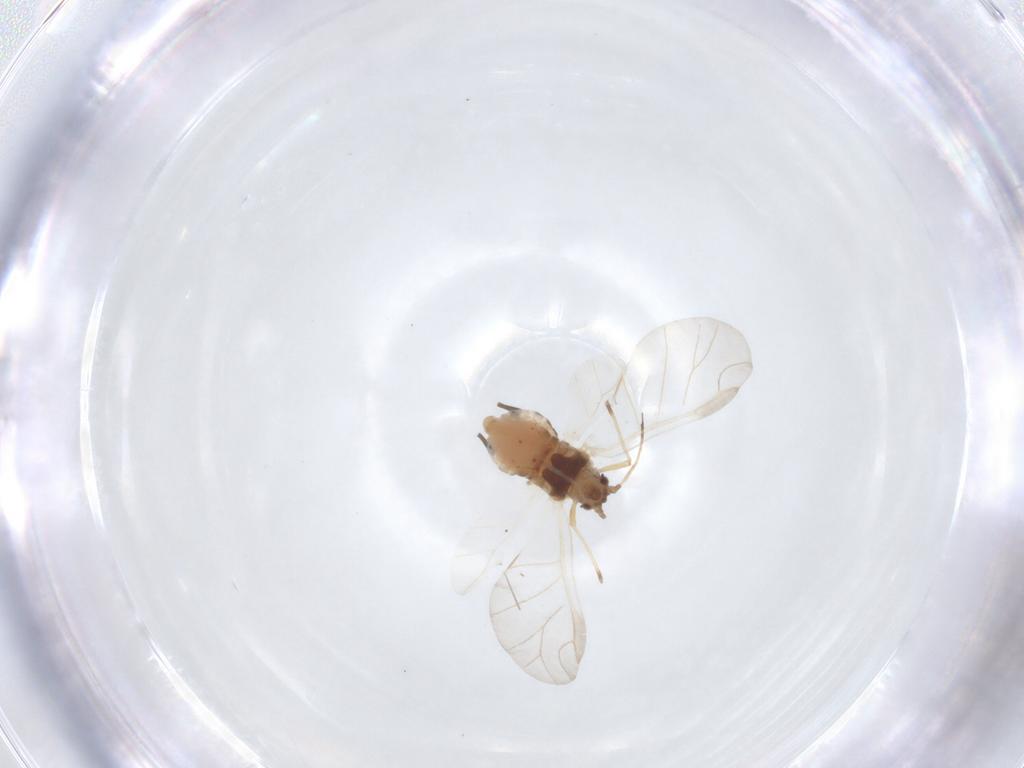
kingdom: Animalia
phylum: Arthropoda
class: Insecta
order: Hemiptera
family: Aphididae
